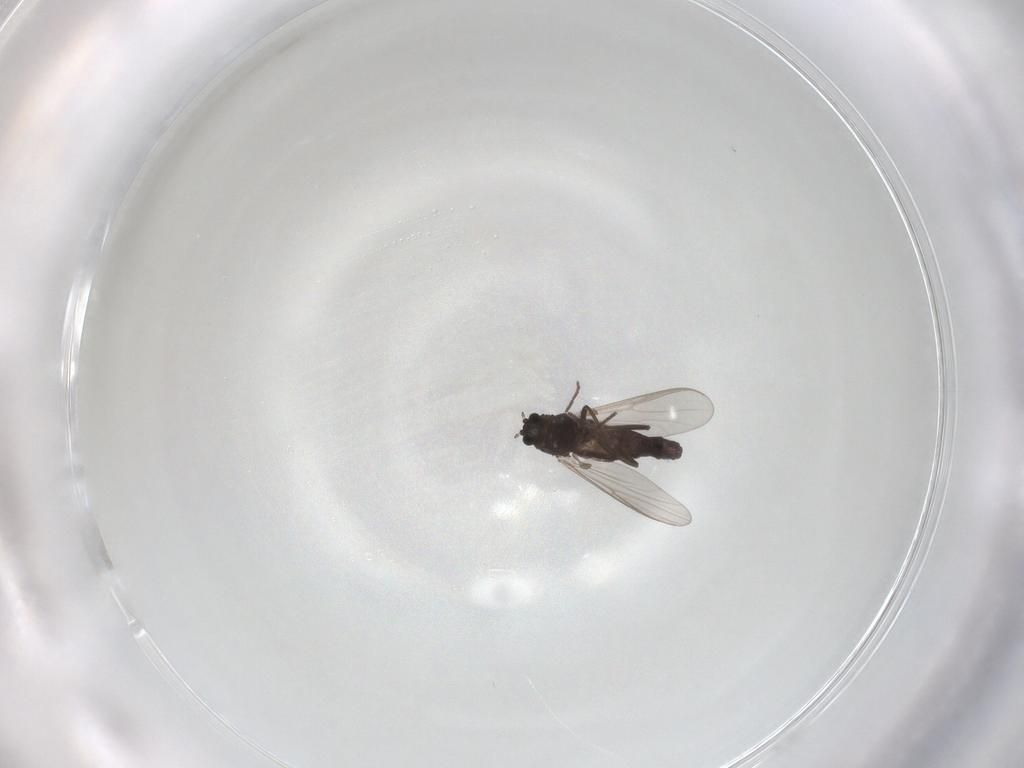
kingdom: Animalia
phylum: Arthropoda
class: Insecta
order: Diptera
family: Chironomidae
